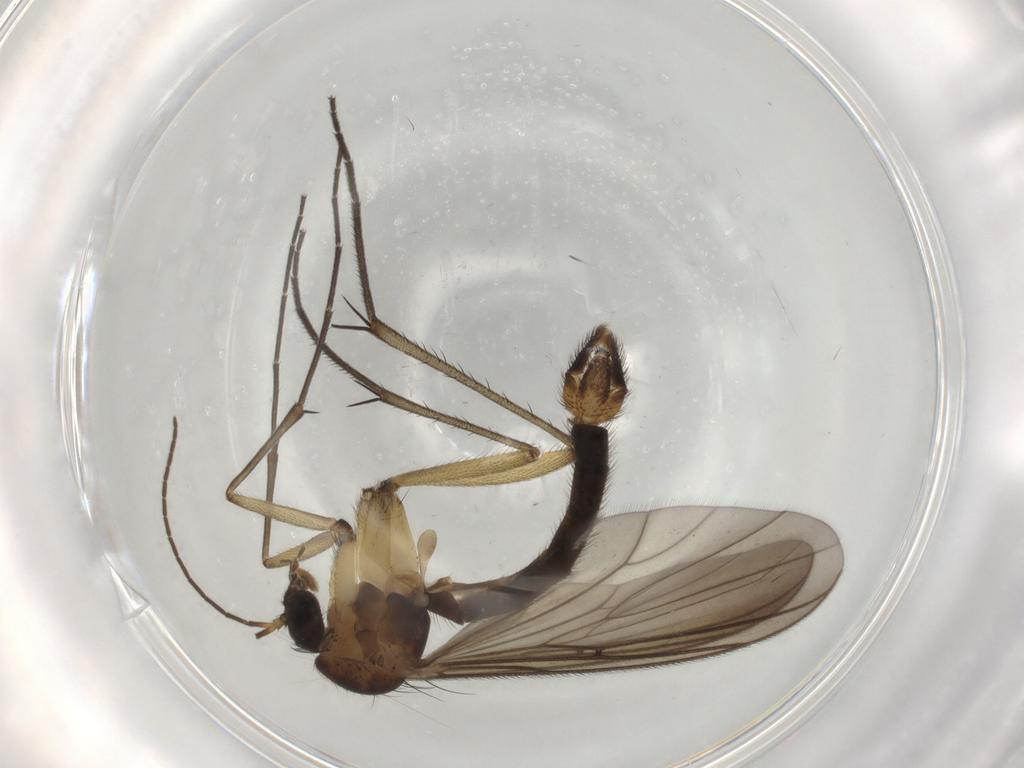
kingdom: Animalia
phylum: Arthropoda
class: Insecta
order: Diptera
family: Mycetophilidae
